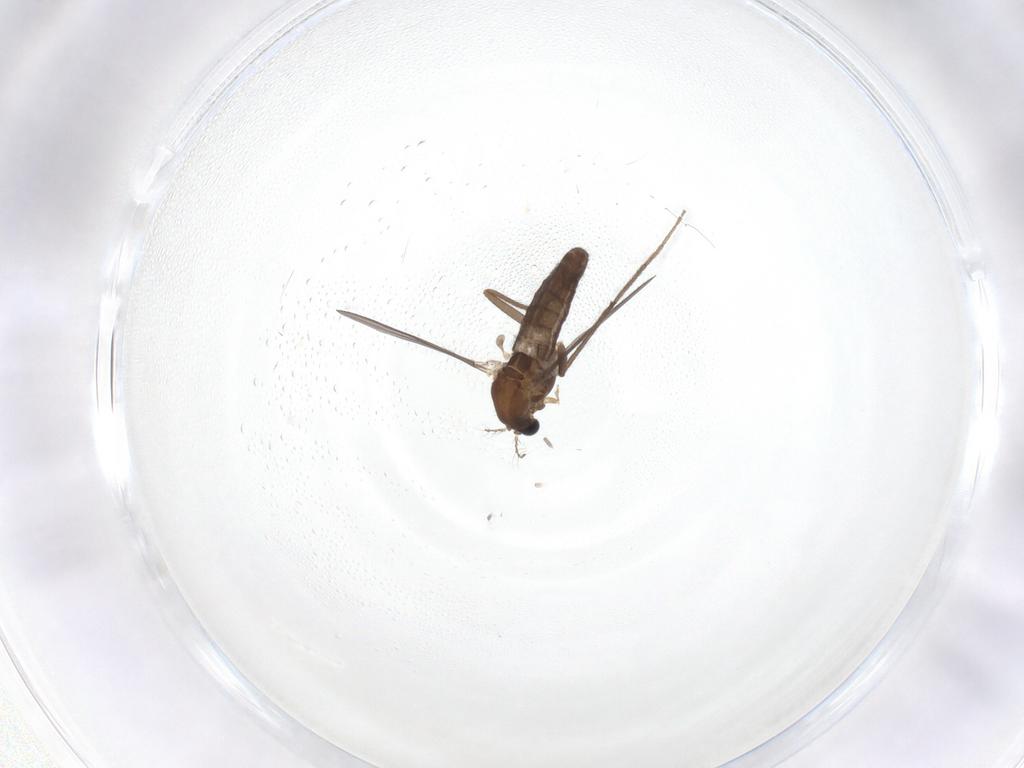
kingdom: Animalia
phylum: Arthropoda
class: Insecta
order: Diptera
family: Chironomidae
